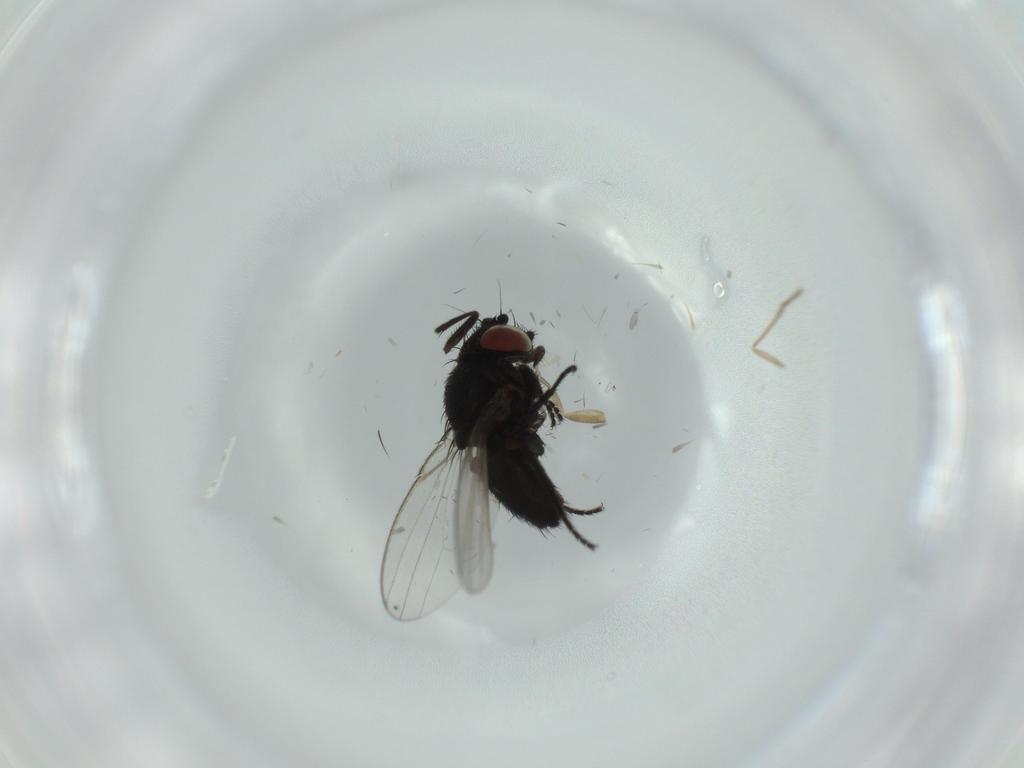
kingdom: Animalia
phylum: Arthropoda
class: Insecta
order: Diptera
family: Milichiidae
